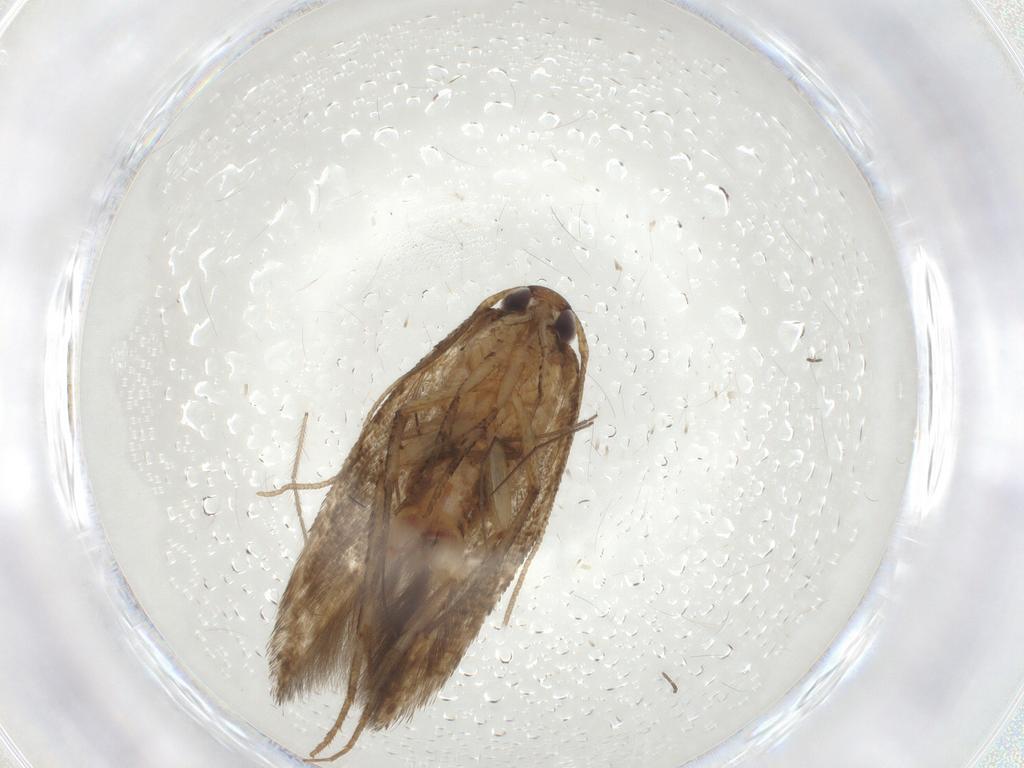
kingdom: Animalia
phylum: Arthropoda
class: Insecta
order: Lepidoptera
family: Cosmopterigidae
